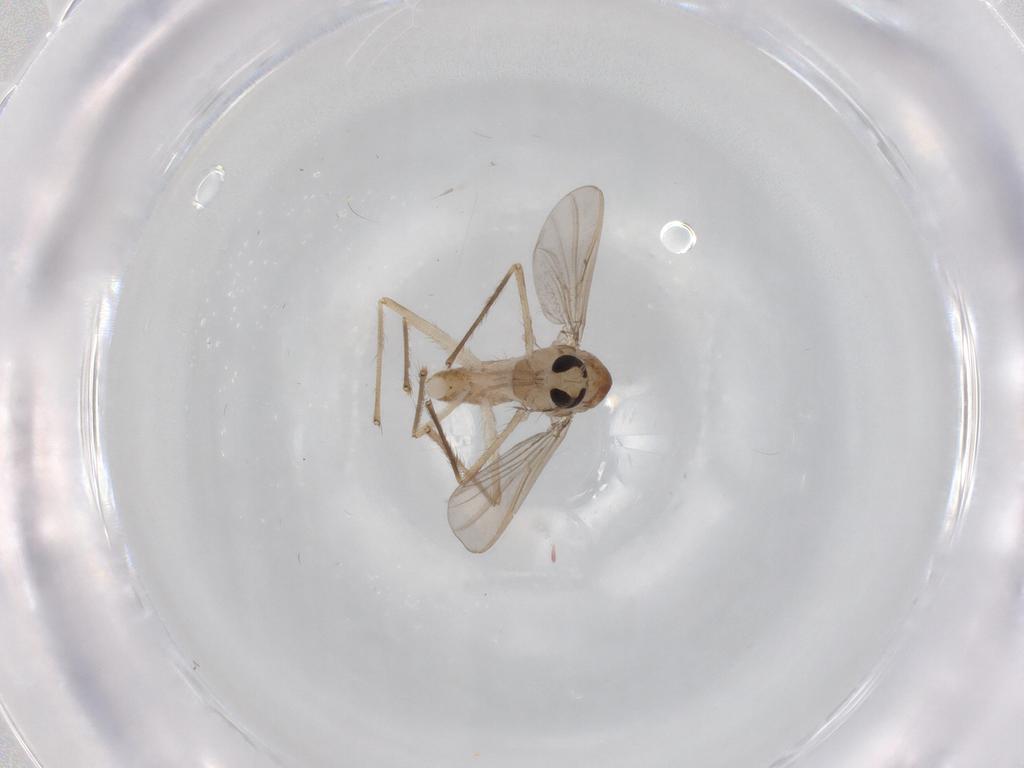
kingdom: Animalia
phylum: Arthropoda
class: Insecta
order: Diptera
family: Chironomidae
